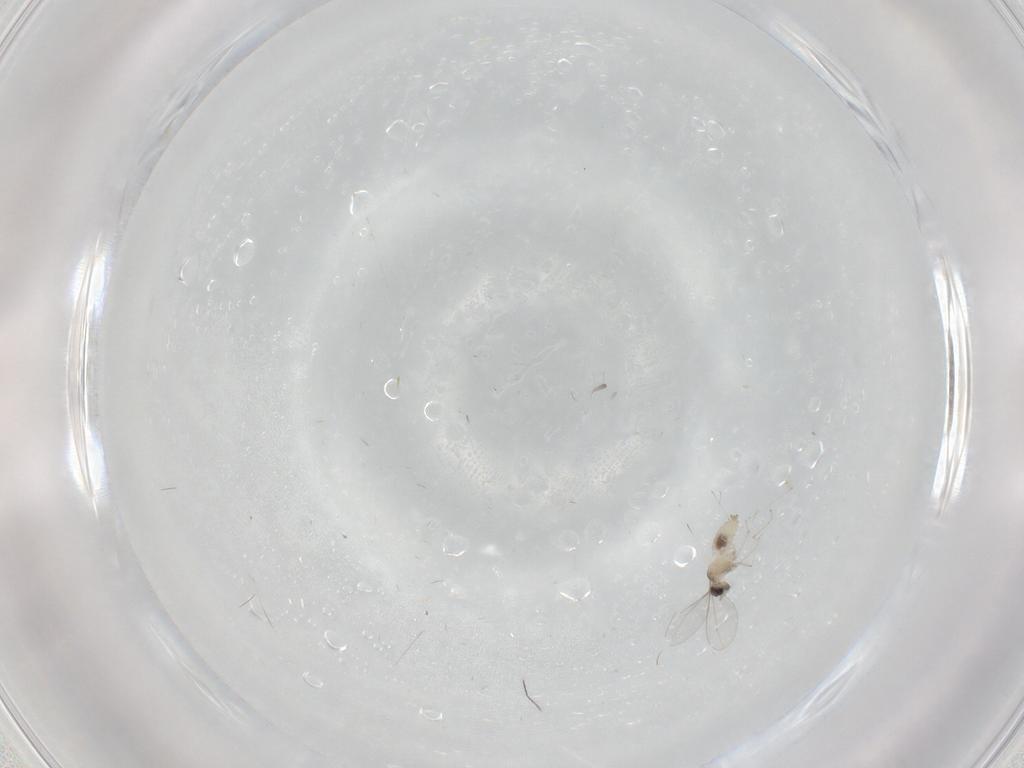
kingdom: Animalia
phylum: Arthropoda
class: Insecta
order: Diptera
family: Cecidomyiidae
